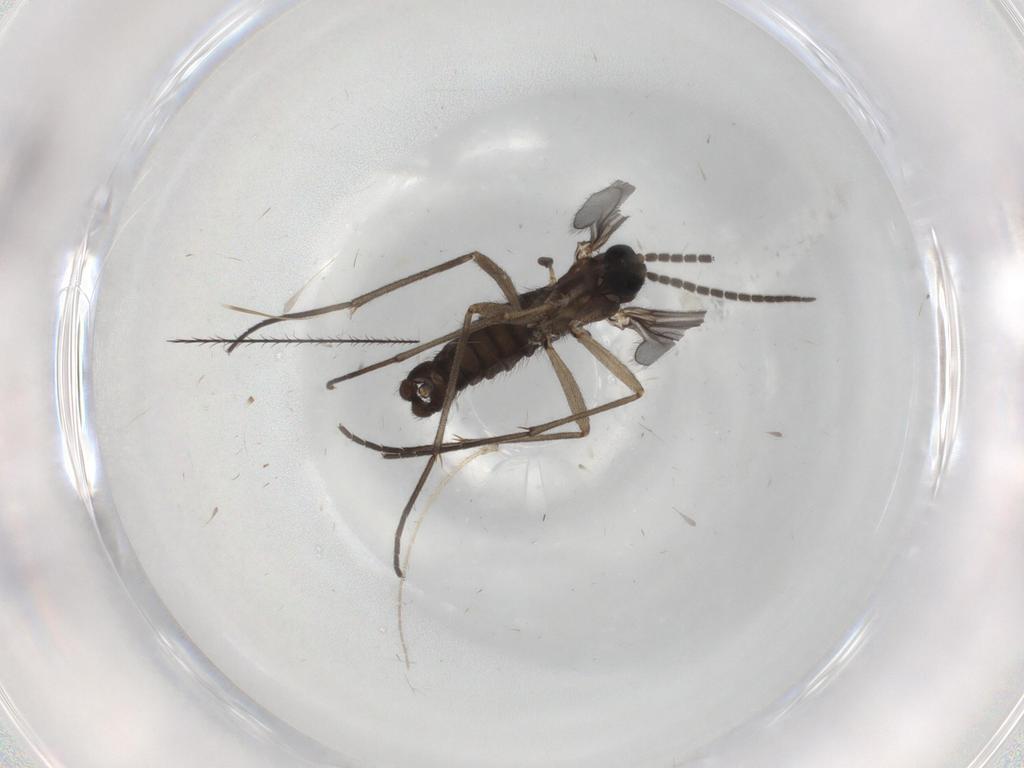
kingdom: Animalia
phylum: Arthropoda
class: Insecta
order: Diptera
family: Sciaridae
